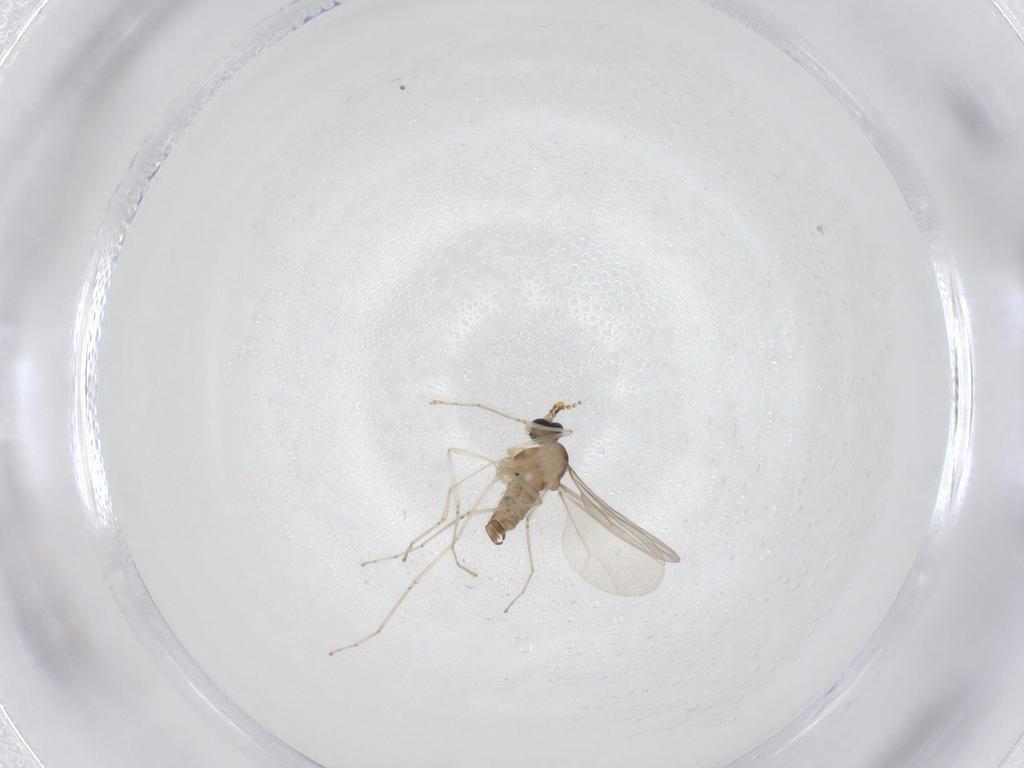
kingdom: Animalia
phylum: Arthropoda
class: Insecta
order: Diptera
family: Cecidomyiidae
